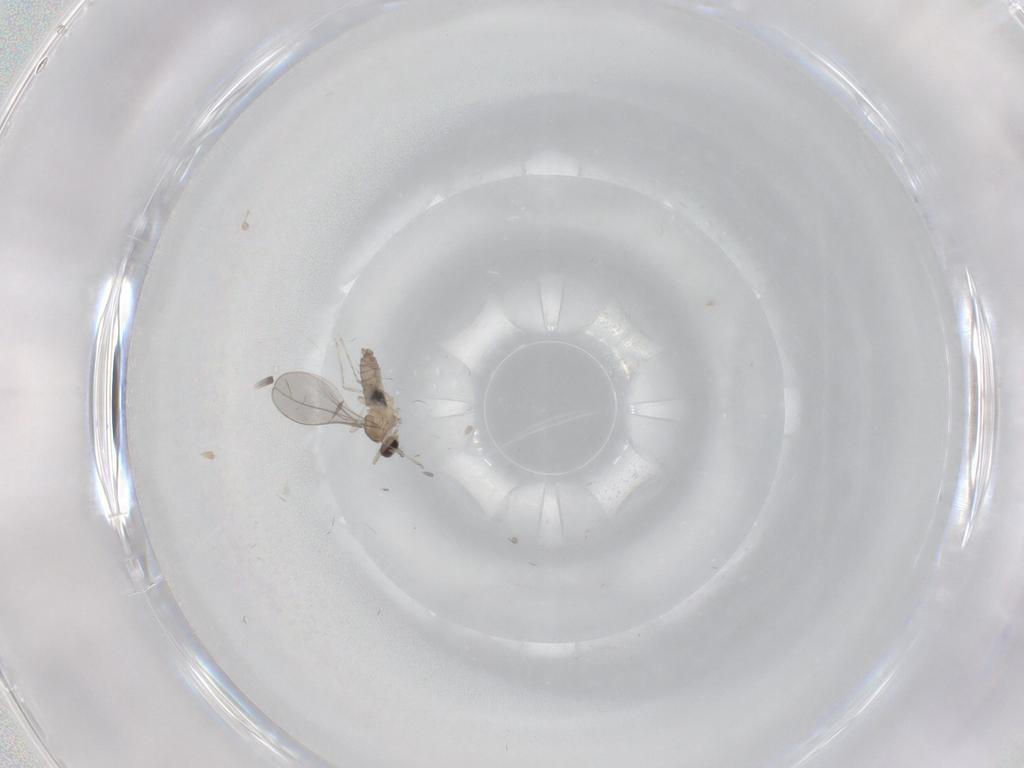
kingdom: Animalia
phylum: Arthropoda
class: Insecta
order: Diptera
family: Cecidomyiidae
